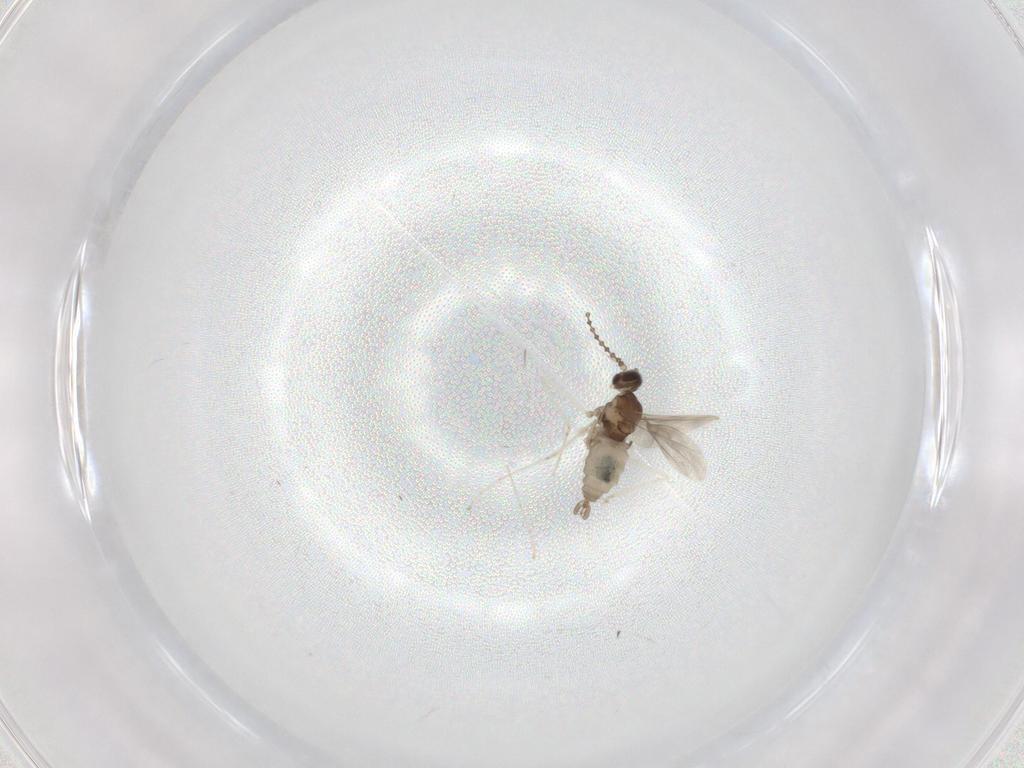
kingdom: Animalia
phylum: Arthropoda
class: Insecta
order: Diptera
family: Cecidomyiidae
